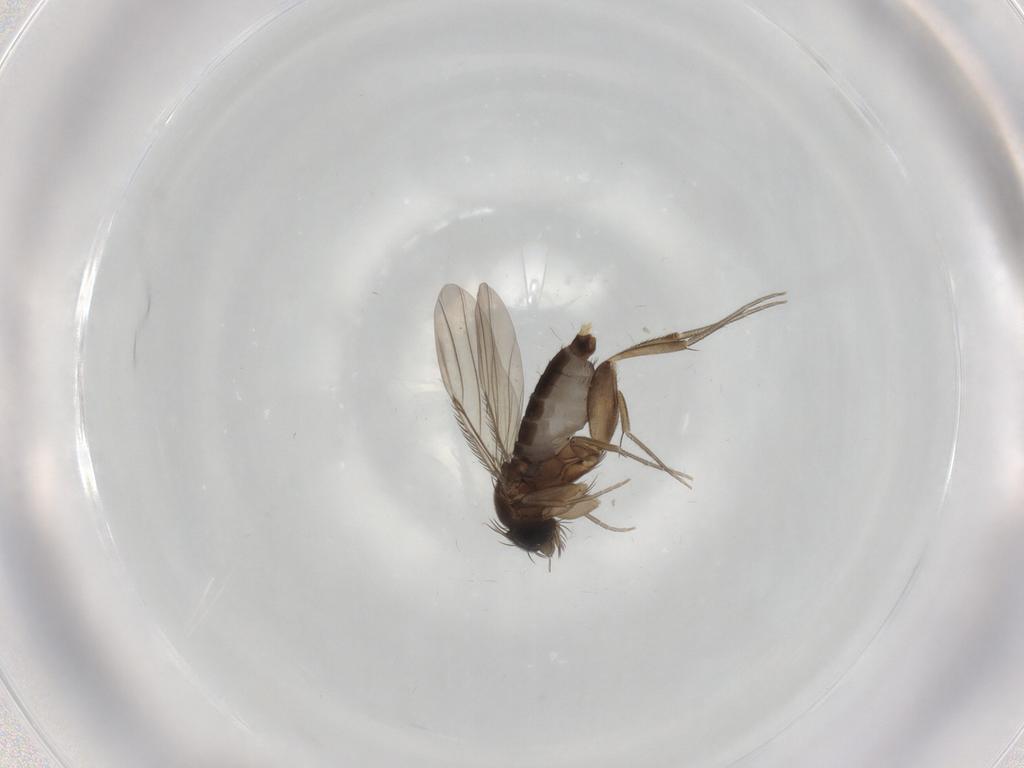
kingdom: Animalia
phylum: Arthropoda
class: Insecta
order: Diptera
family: Phoridae
